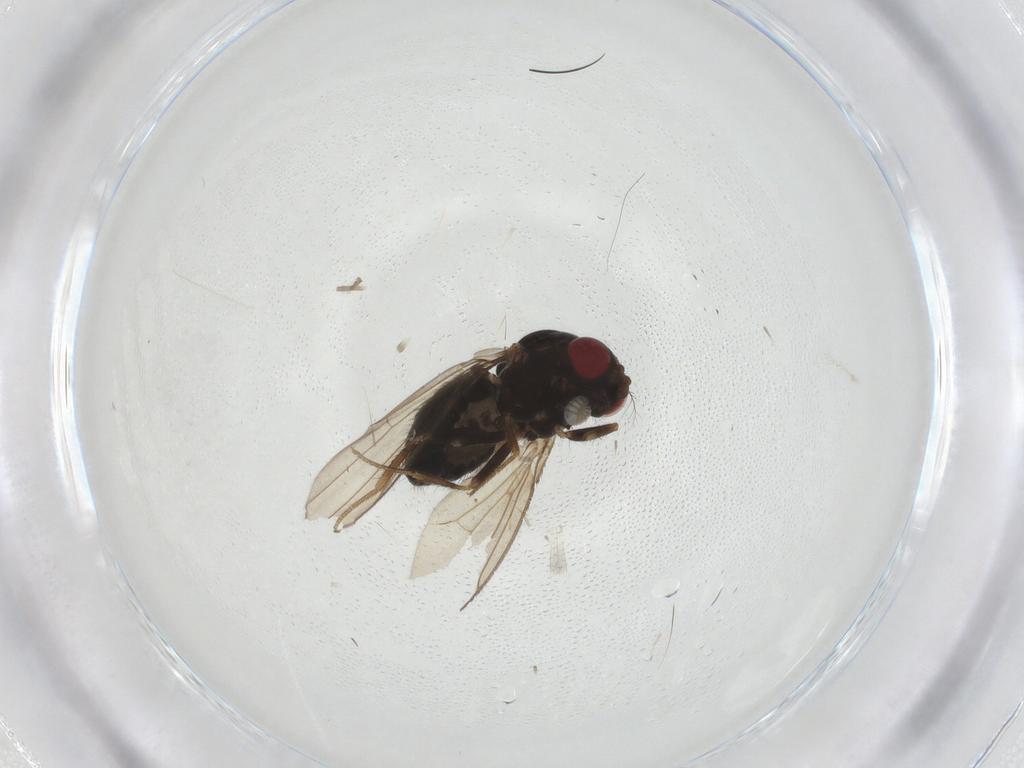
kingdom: Animalia
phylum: Arthropoda
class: Insecta
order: Diptera
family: Drosophilidae
